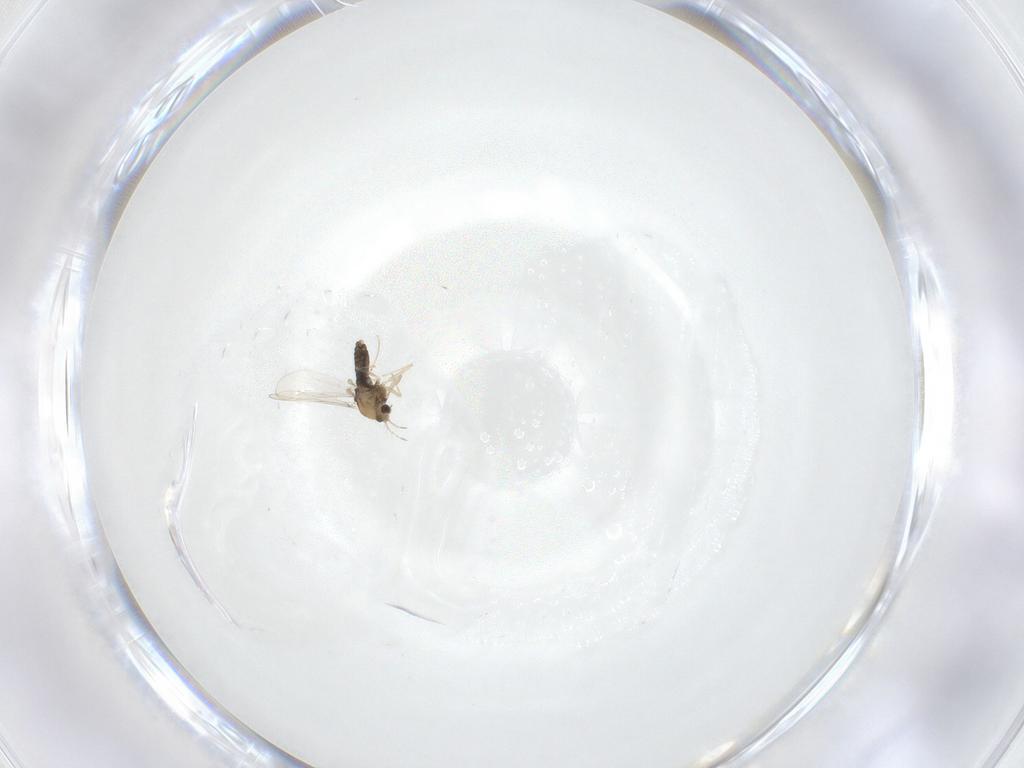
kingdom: Animalia
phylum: Arthropoda
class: Insecta
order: Diptera
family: Chironomidae
